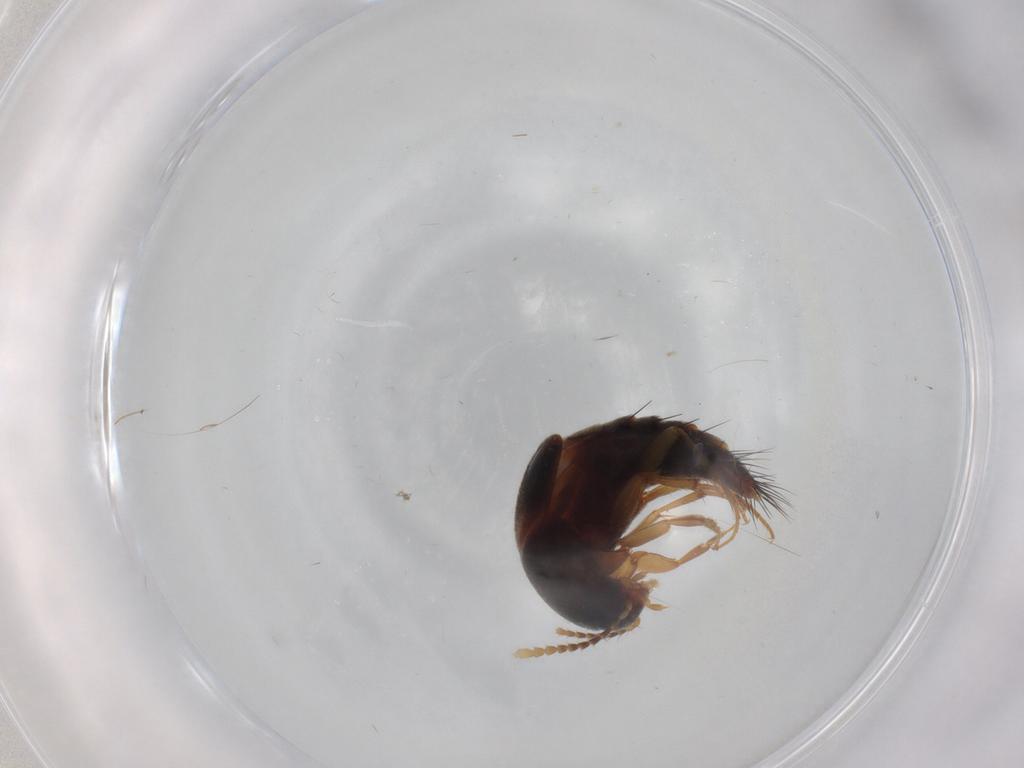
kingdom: Animalia
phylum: Arthropoda
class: Insecta
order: Coleoptera
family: Staphylinidae
